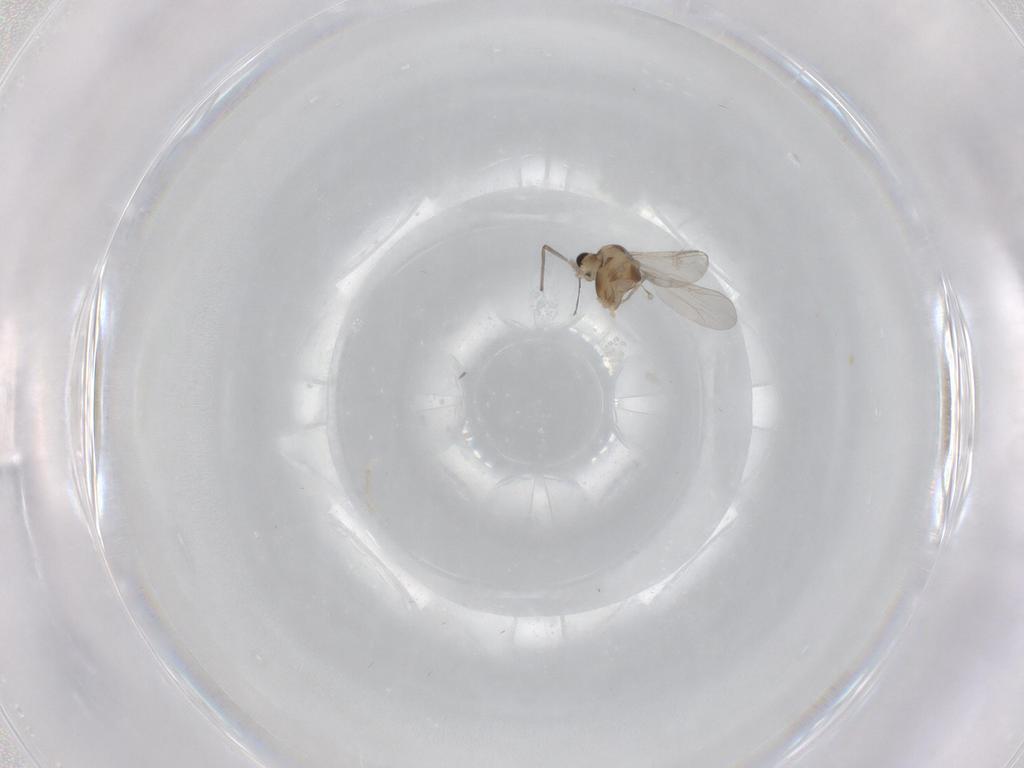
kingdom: Animalia
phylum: Arthropoda
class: Insecta
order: Diptera
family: Chironomidae
